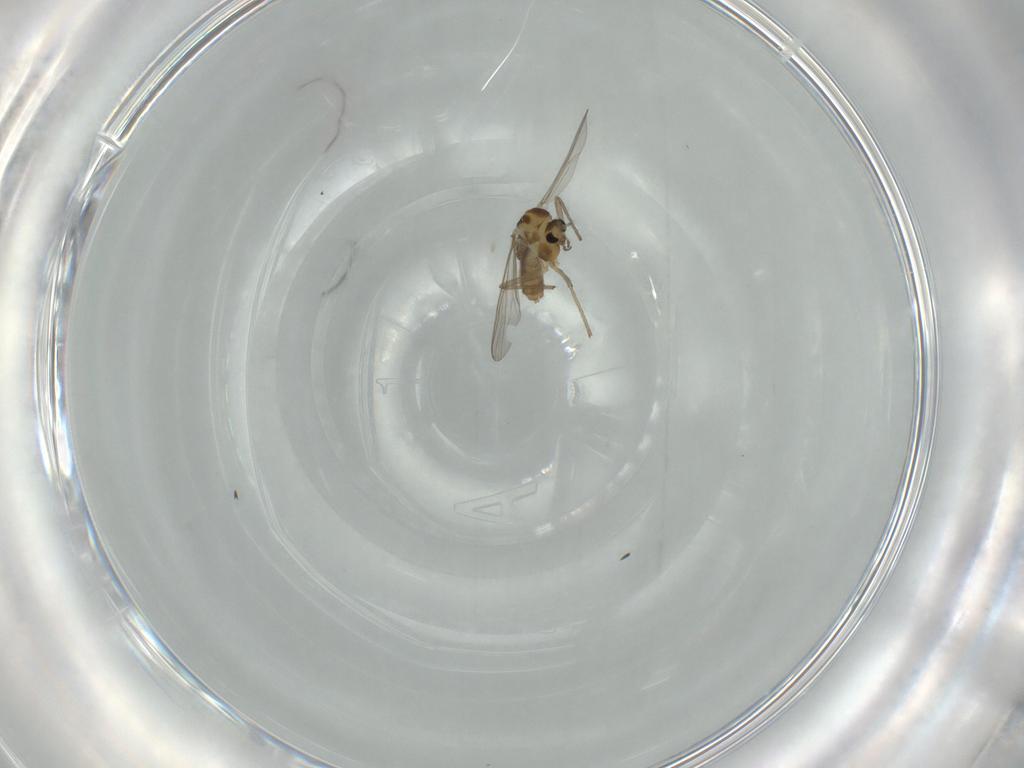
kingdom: Animalia
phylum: Arthropoda
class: Insecta
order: Diptera
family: Chironomidae
